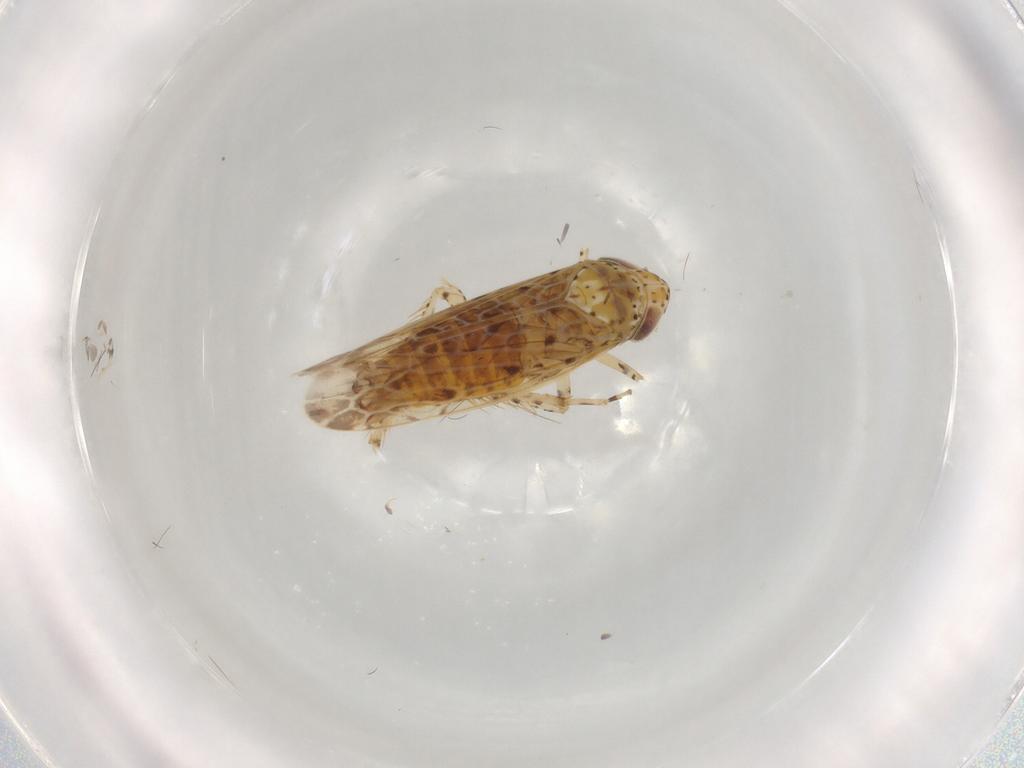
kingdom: Animalia
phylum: Arthropoda
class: Insecta
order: Hemiptera
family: Cicadellidae
